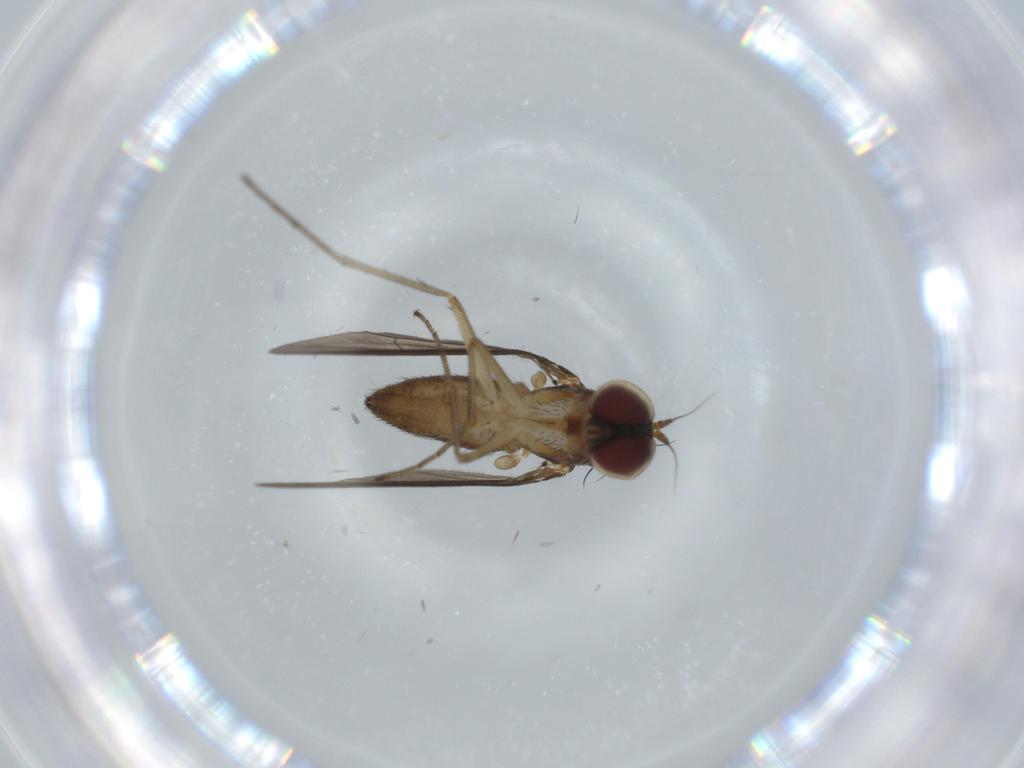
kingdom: Animalia
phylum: Arthropoda
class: Insecta
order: Diptera
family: Dolichopodidae
